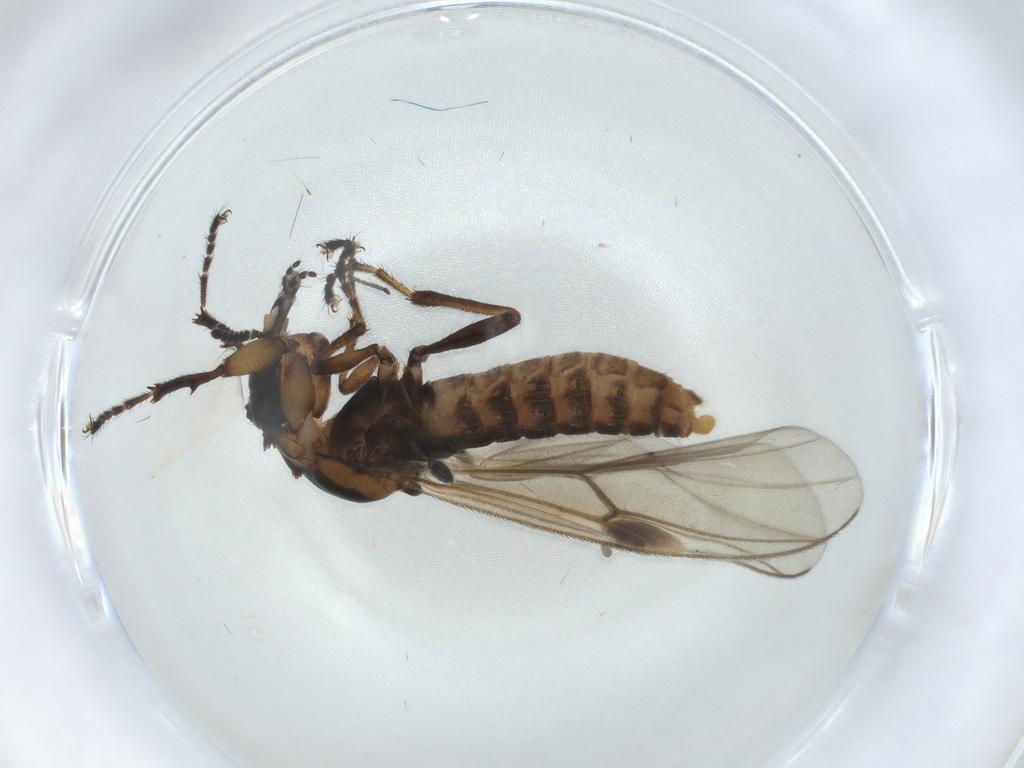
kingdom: Animalia
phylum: Arthropoda
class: Insecta
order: Diptera
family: Bibionidae
